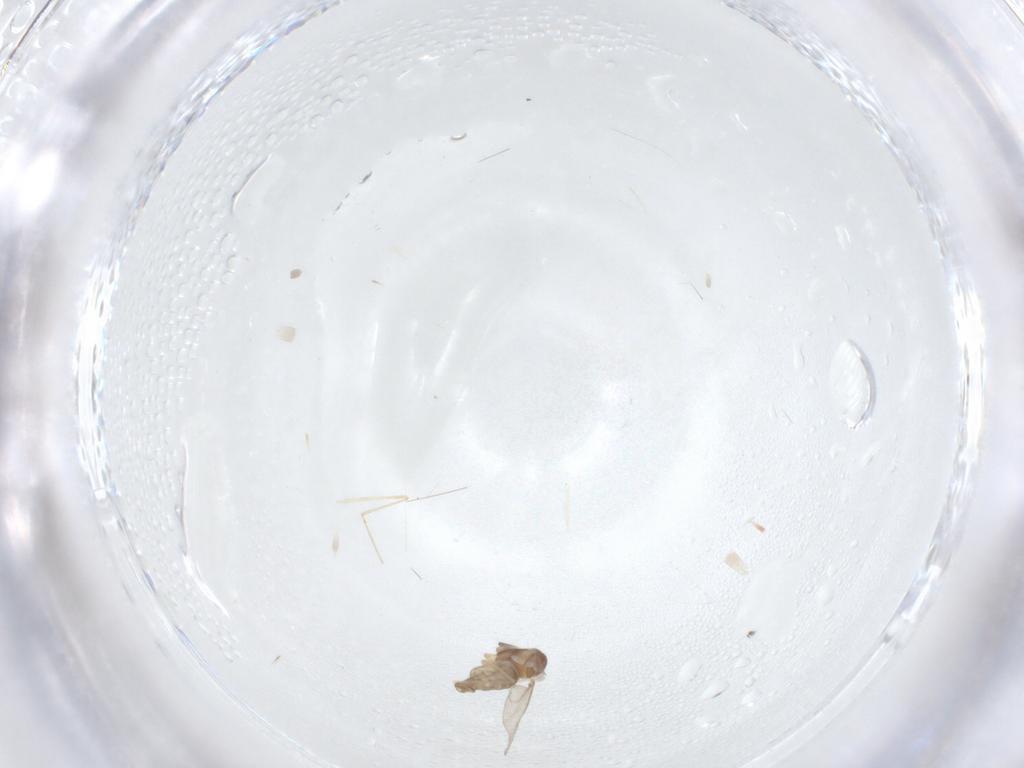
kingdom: Animalia
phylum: Arthropoda
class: Insecta
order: Diptera
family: Cecidomyiidae
